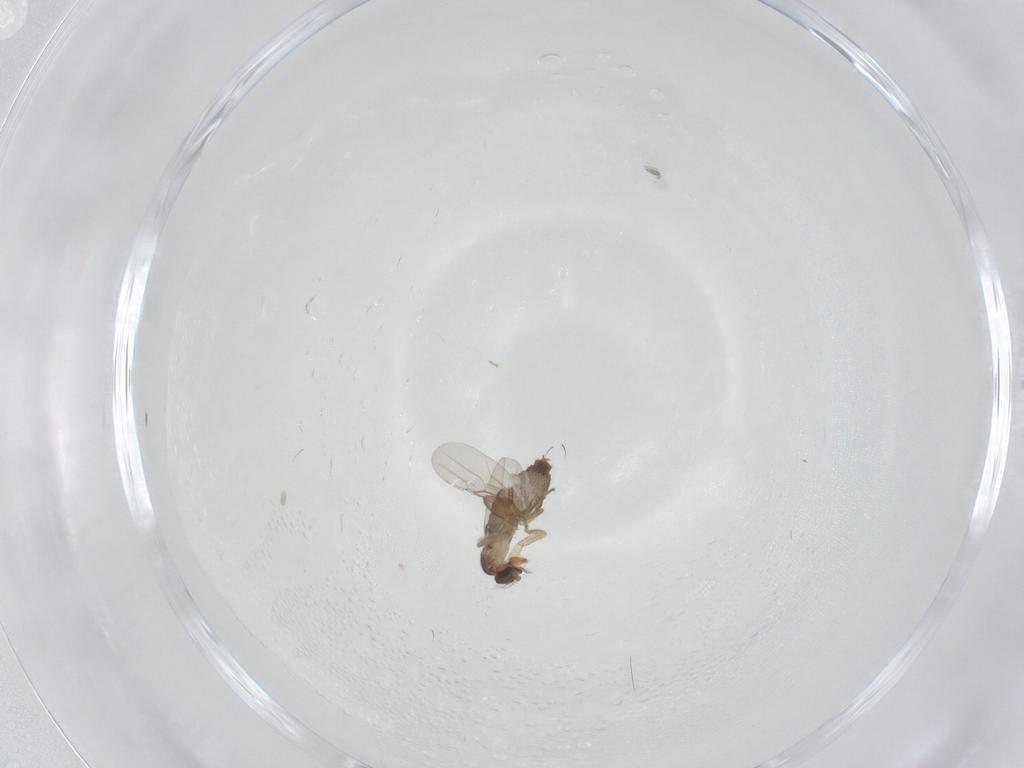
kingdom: Animalia
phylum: Arthropoda
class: Insecta
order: Diptera
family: Phoridae
